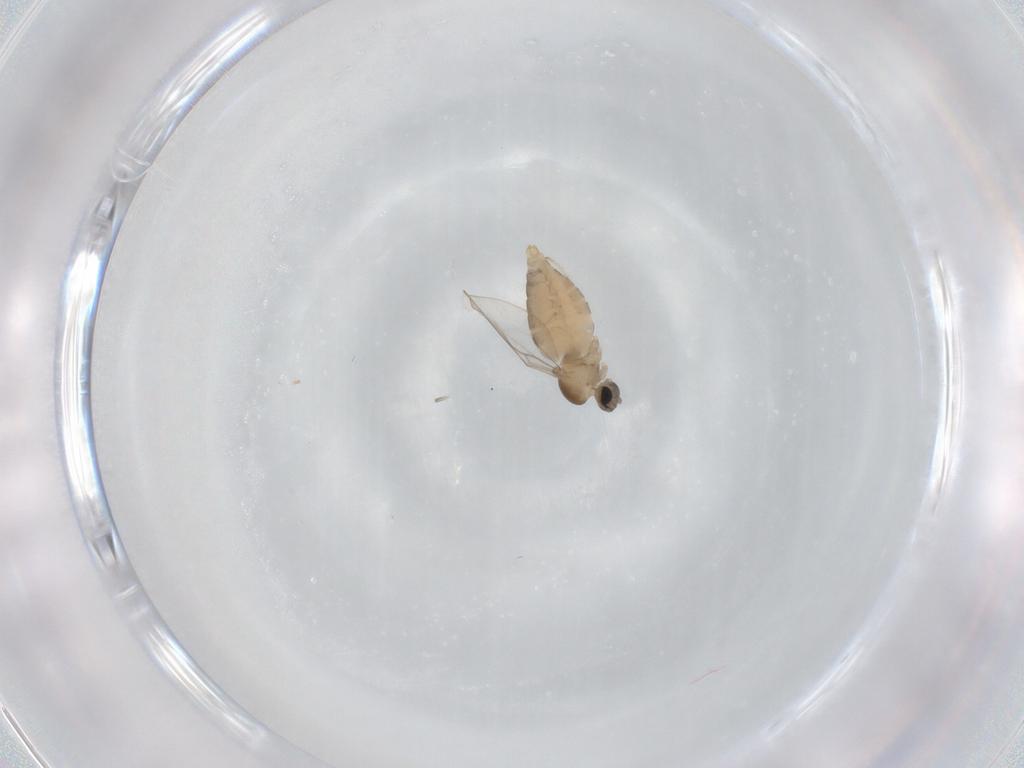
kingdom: Animalia
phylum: Arthropoda
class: Insecta
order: Diptera
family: Cecidomyiidae
